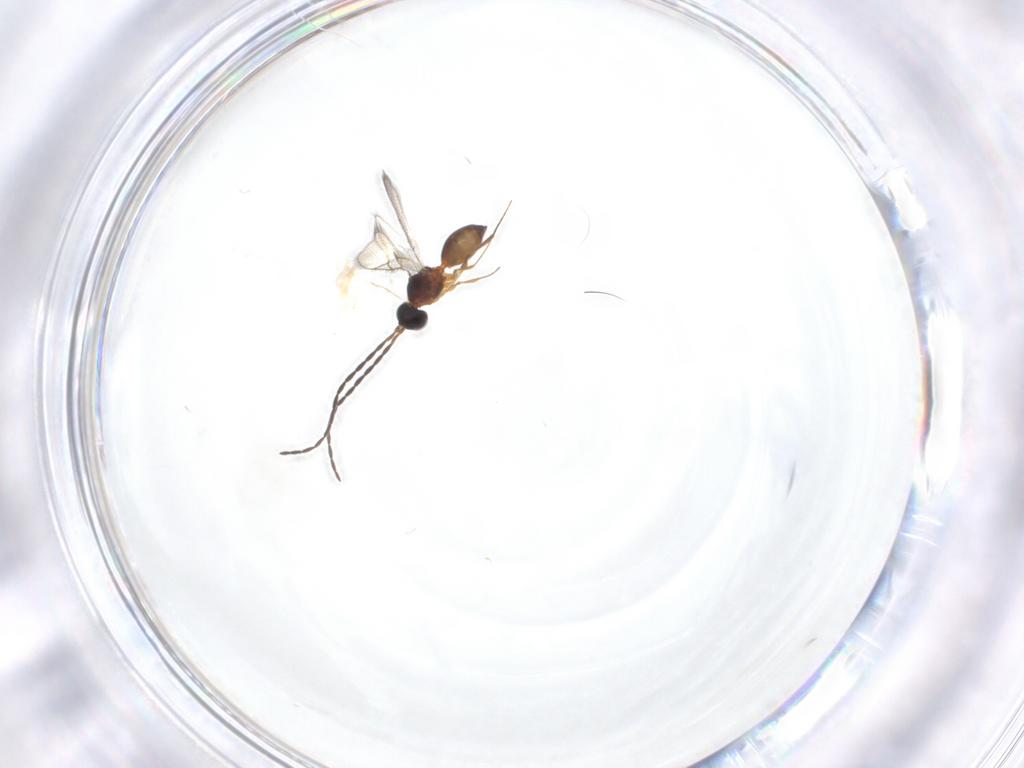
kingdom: Animalia
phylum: Arthropoda
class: Insecta
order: Hymenoptera
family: Figitidae
